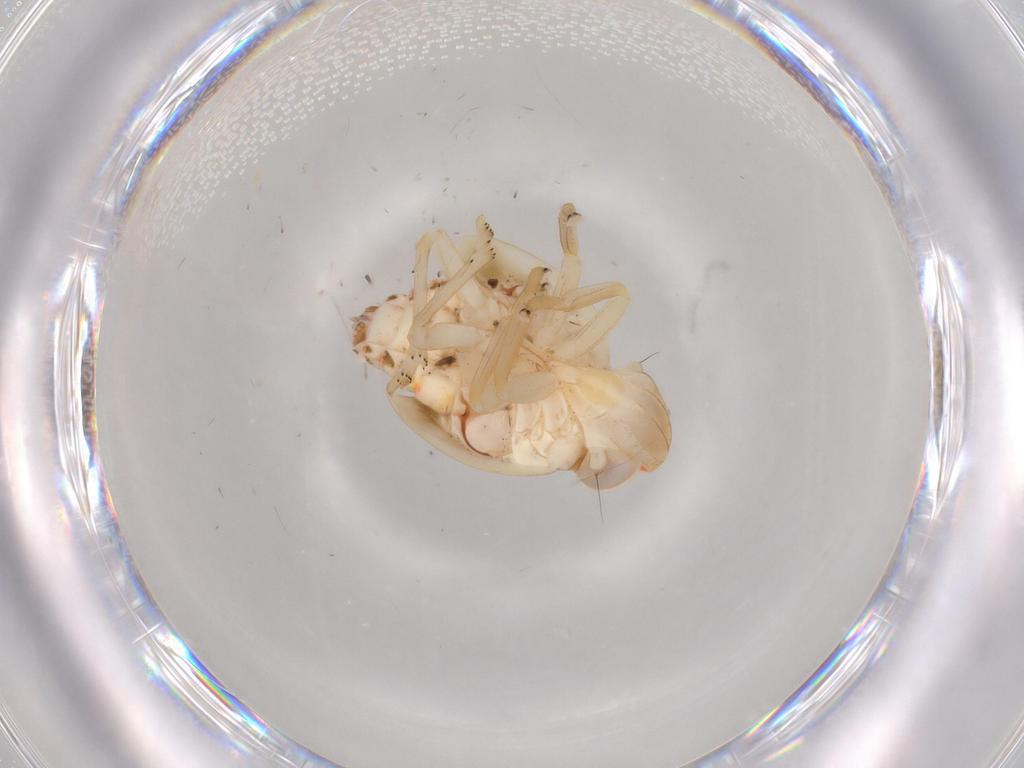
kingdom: Animalia
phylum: Arthropoda
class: Insecta
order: Hemiptera
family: Nogodinidae
